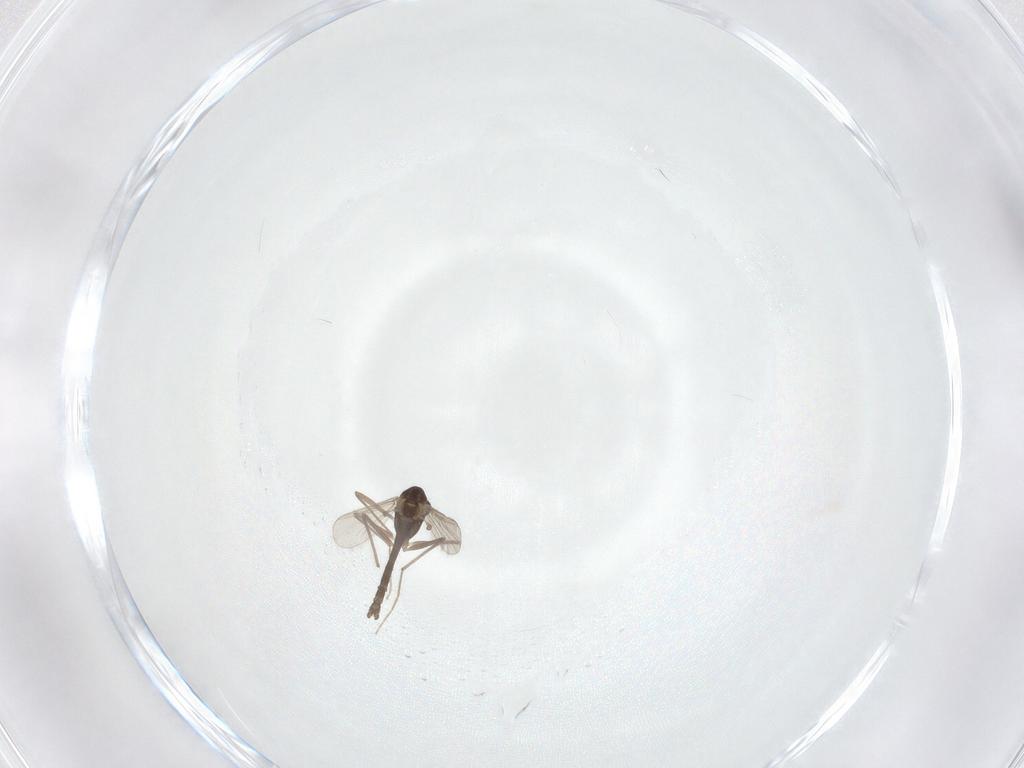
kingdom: Animalia
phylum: Arthropoda
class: Insecta
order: Diptera
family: Chironomidae
